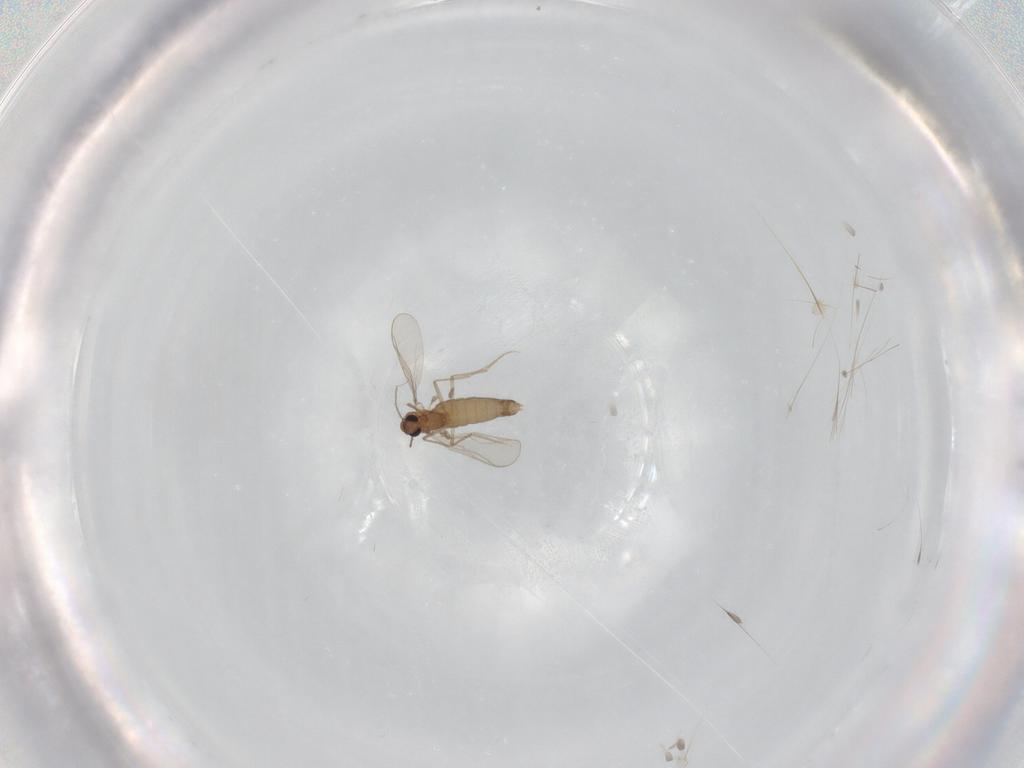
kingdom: Animalia
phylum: Arthropoda
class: Insecta
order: Diptera
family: Chironomidae
